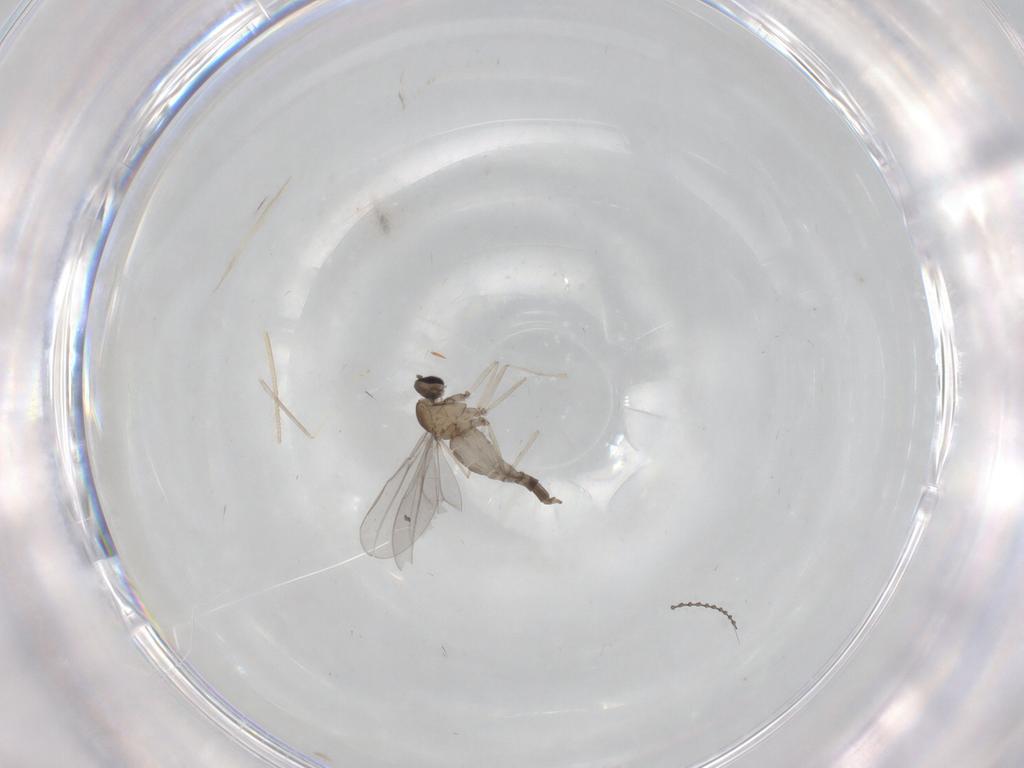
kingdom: Animalia
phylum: Arthropoda
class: Insecta
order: Diptera
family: Cecidomyiidae
